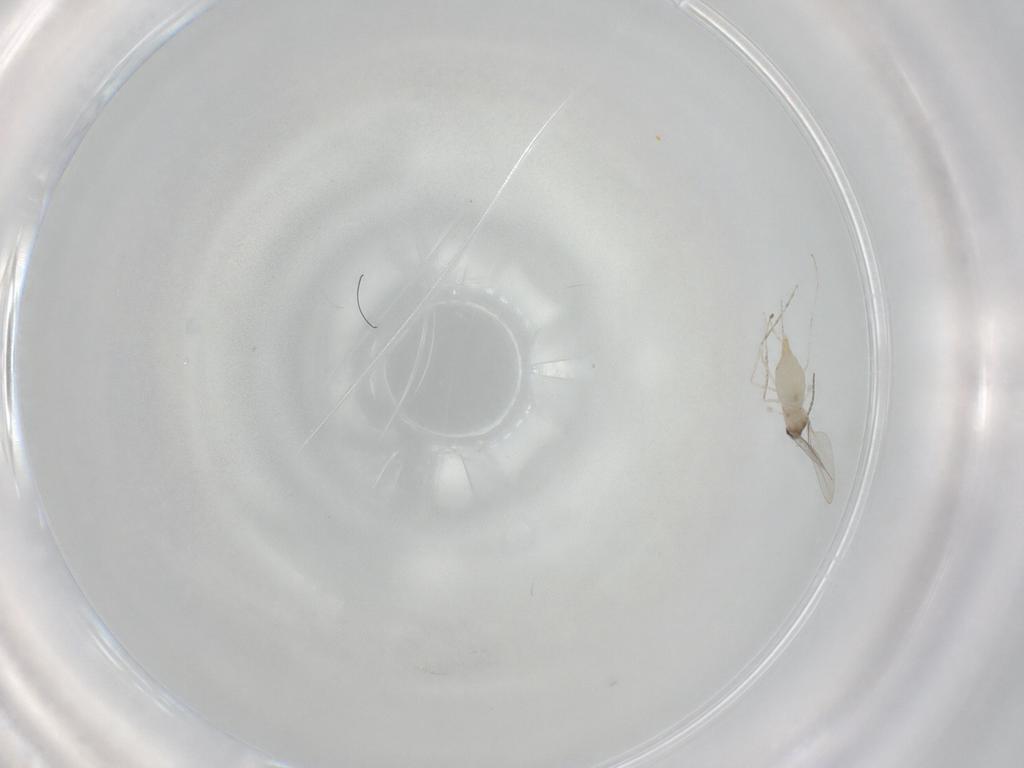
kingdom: Animalia
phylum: Arthropoda
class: Insecta
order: Diptera
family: Cecidomyiidae
